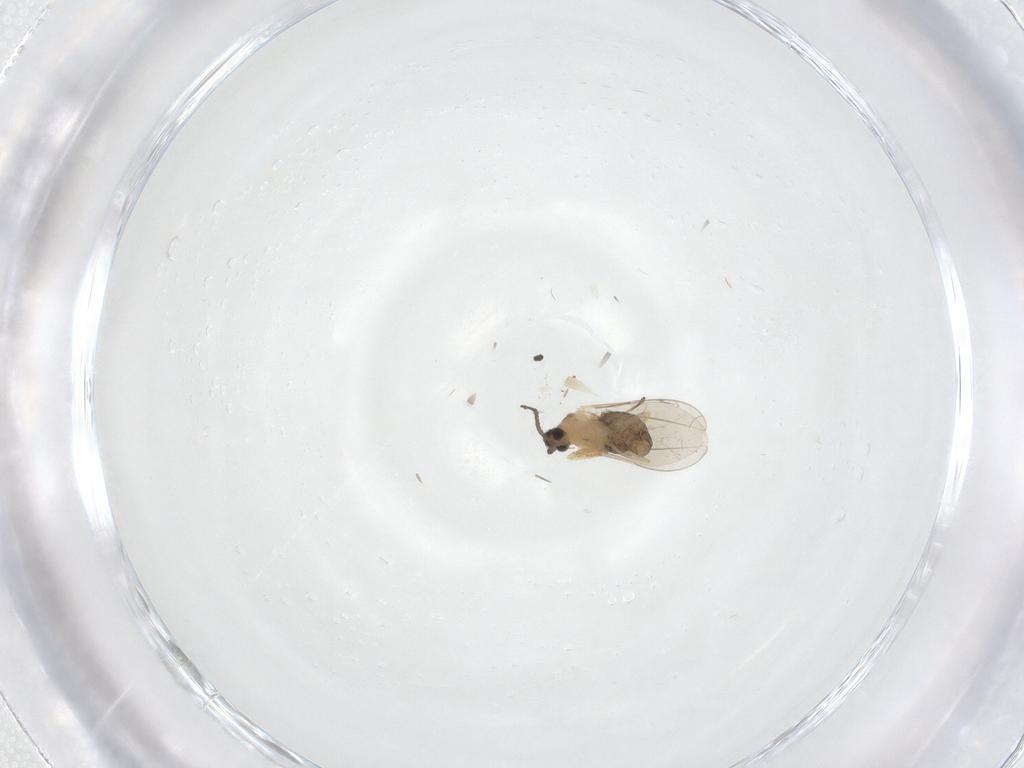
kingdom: Animalia
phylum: Arthropoda
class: Insecta
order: Diptera
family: Cecidomyiidae
